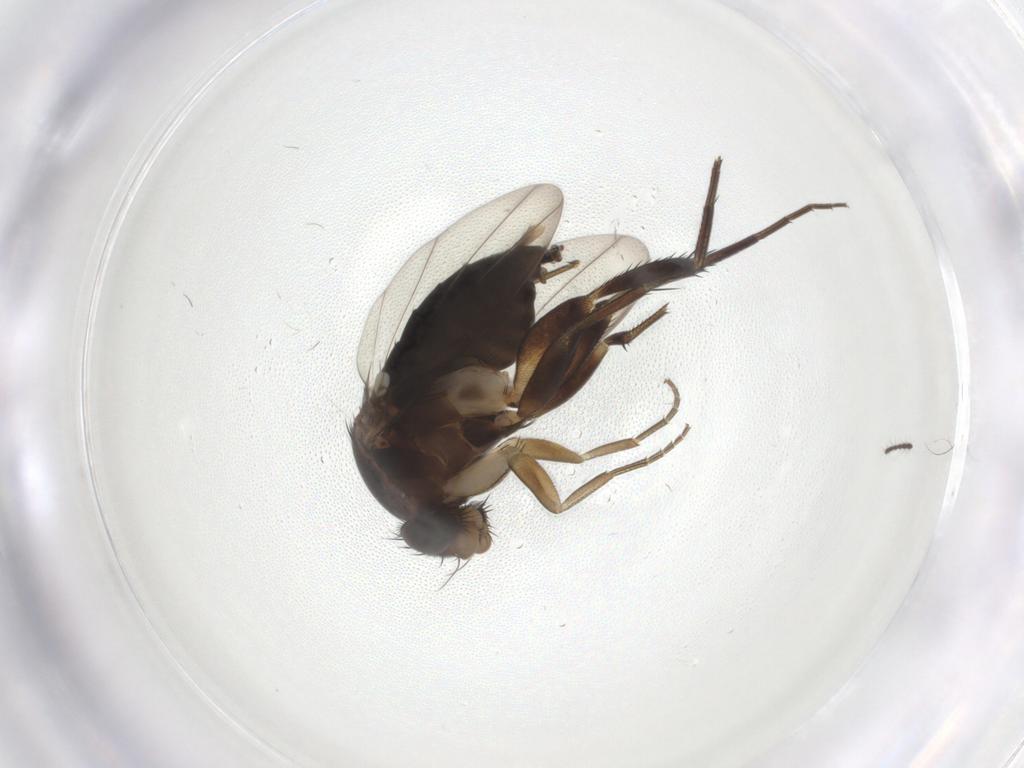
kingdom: Animalia
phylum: Arthropoda
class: Insecta
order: Diptera
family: Phoridae
